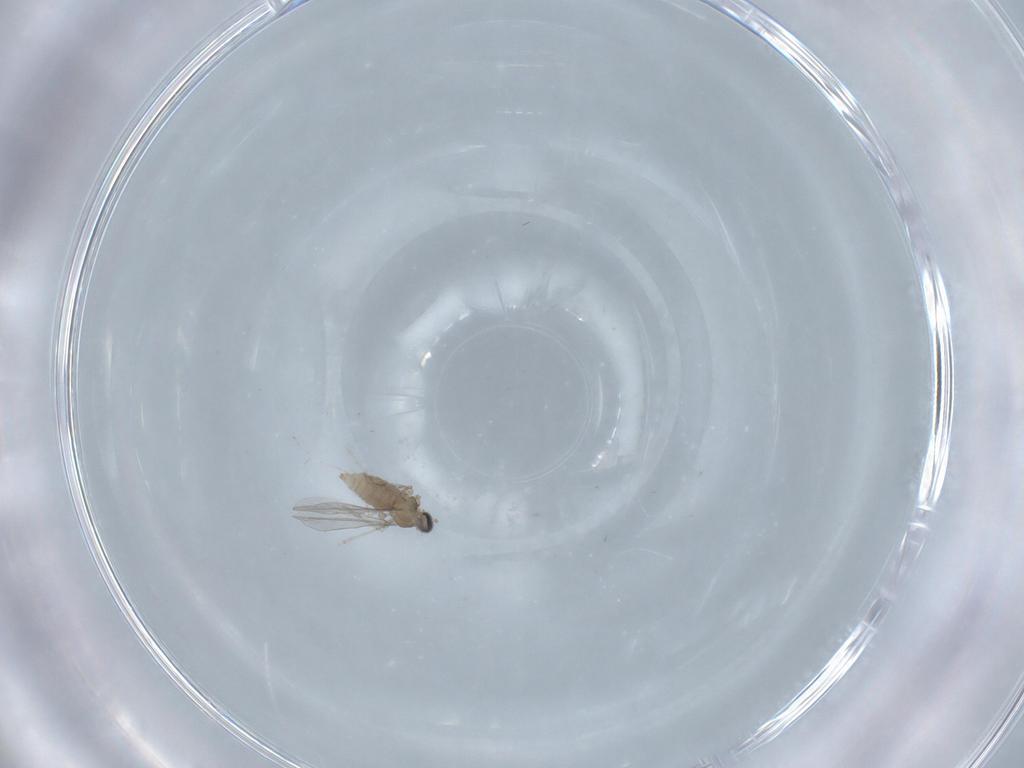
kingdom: Animalia
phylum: Arthropoda
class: Insecta
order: Diptera
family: Cecidomyiidae
